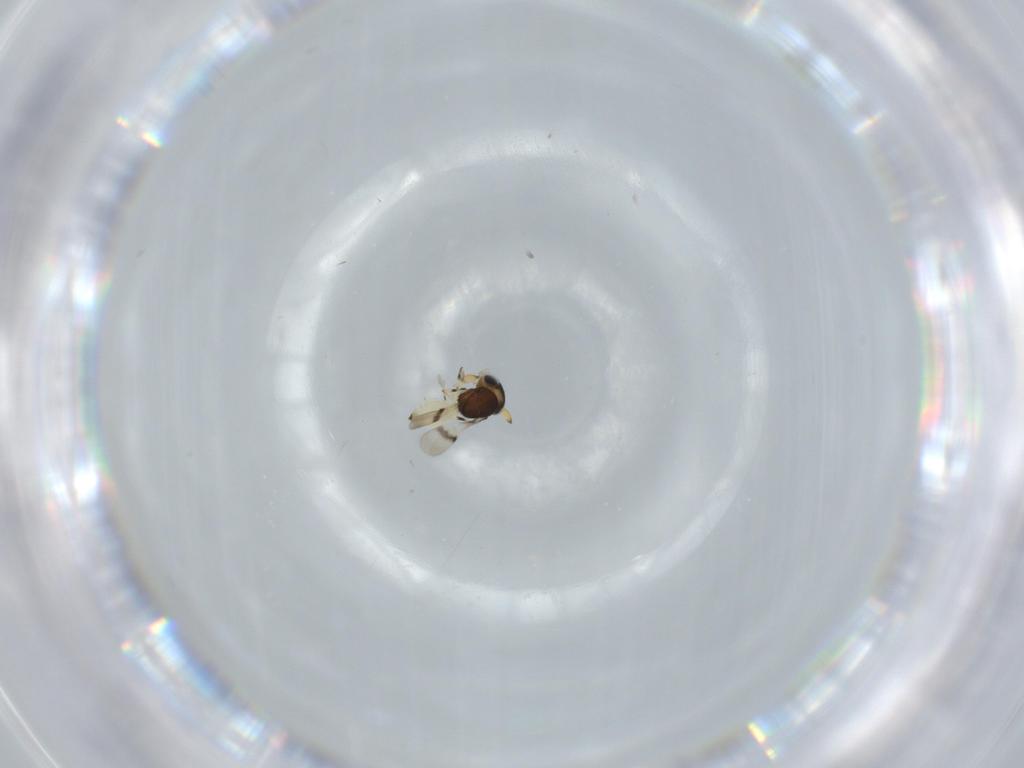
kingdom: Animalia
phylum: Arthropoda
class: Insecta
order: Hymenoptera
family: Scelionidae
